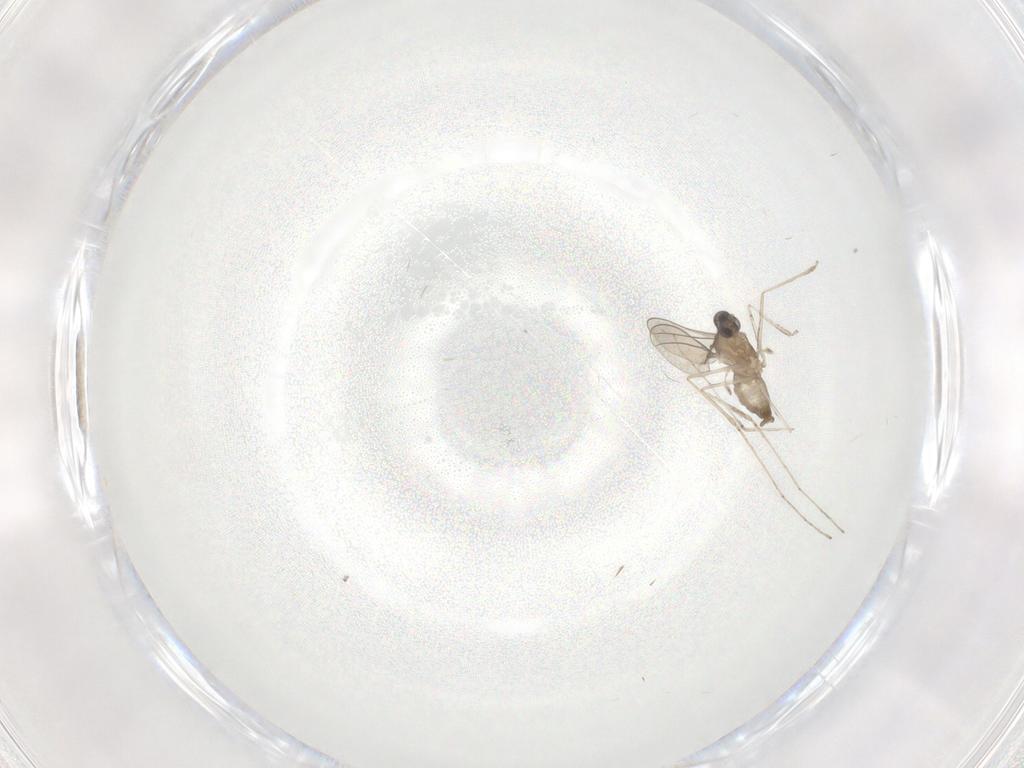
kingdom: Animalia
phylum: Arthropoda
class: Insecta
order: Diptera
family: Cecidomyiidae
